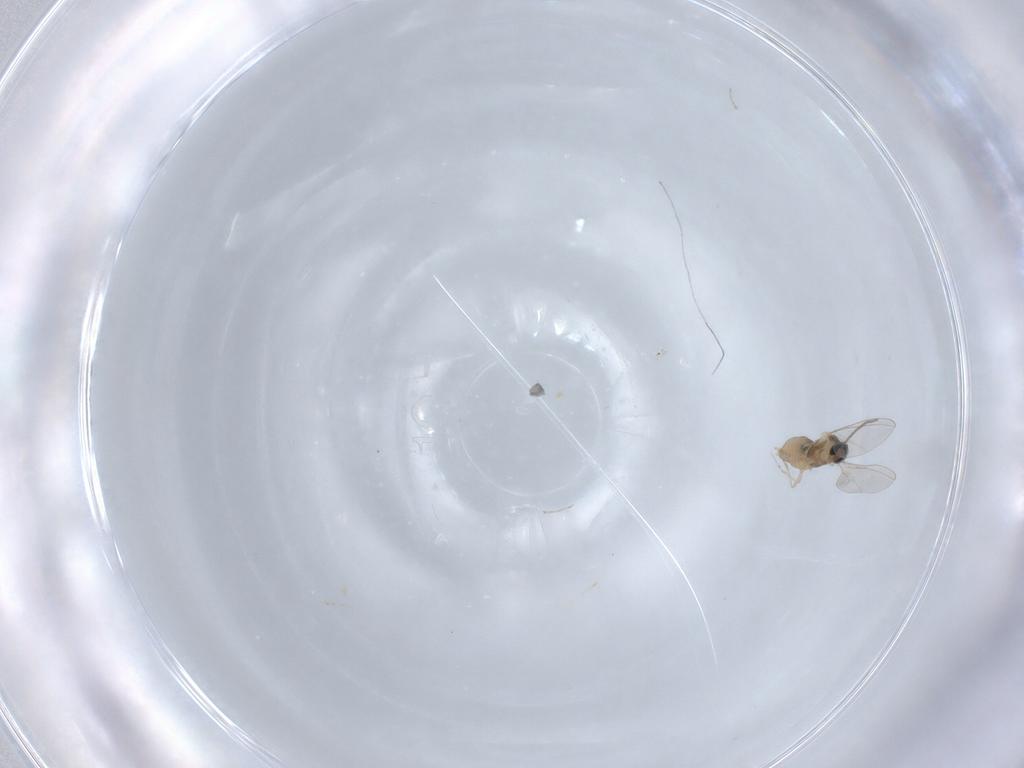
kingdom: Animalia
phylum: Arthropoda
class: Insecta
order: Diptera
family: Cecidomyiidae
